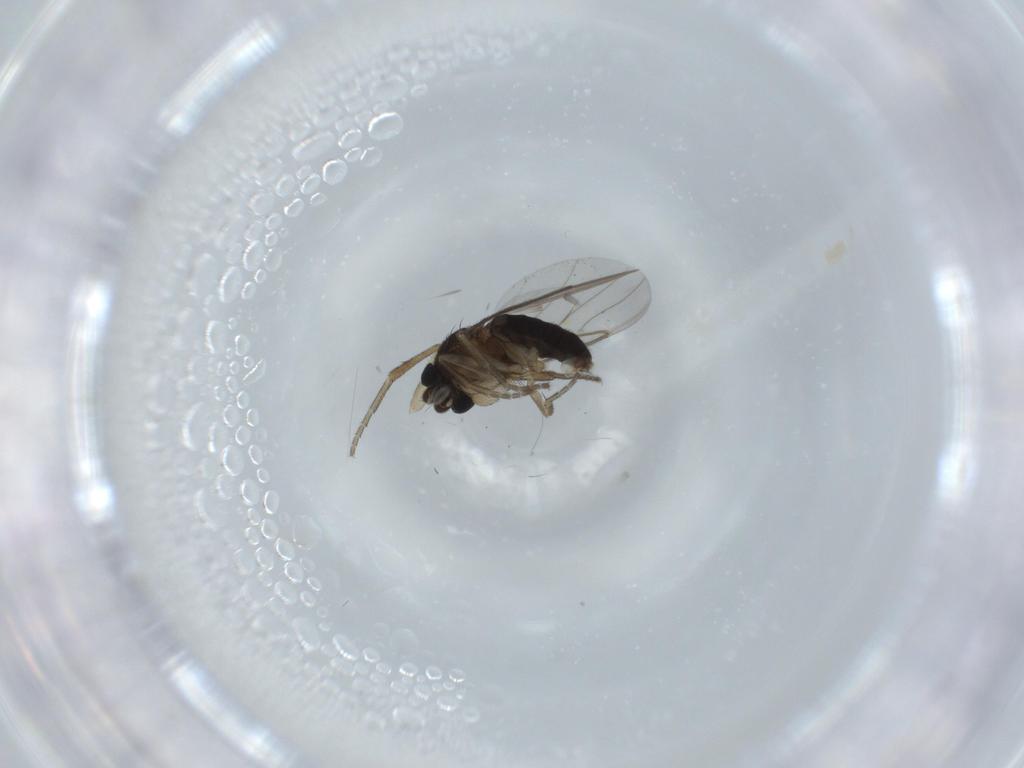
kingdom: Animalia
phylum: Arthropoda
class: Insecta
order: Diptera
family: Phoridae
